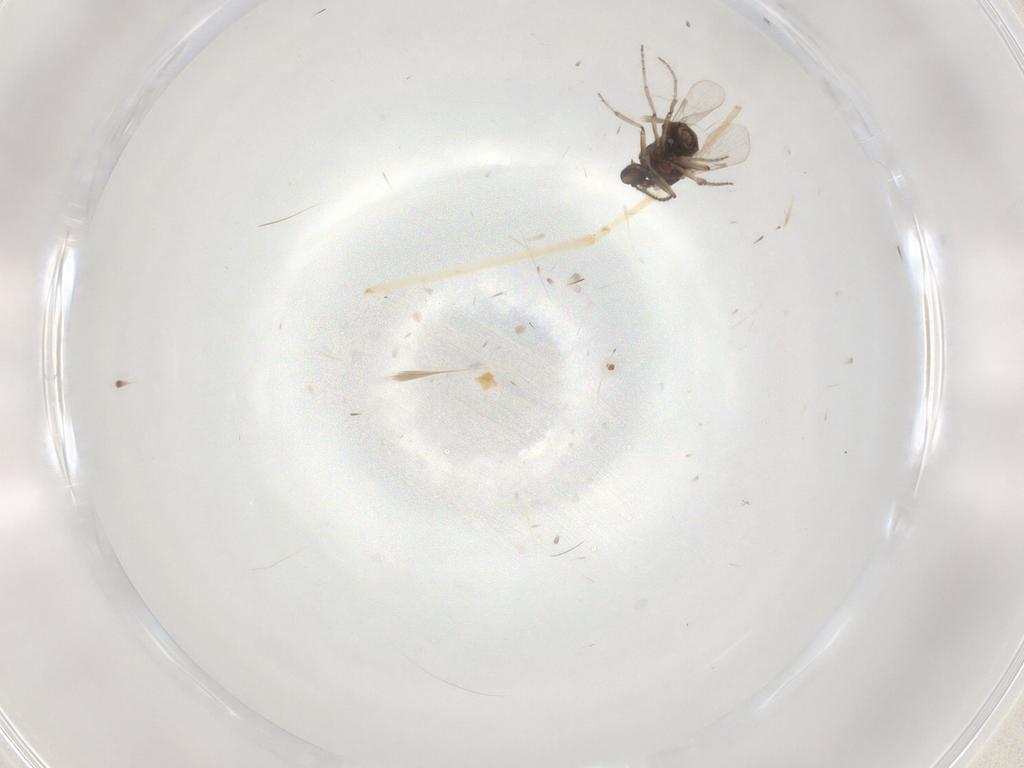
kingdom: Animalia
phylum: Arthropoda
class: Insecta
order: Diptera
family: Ceratopogonidae
